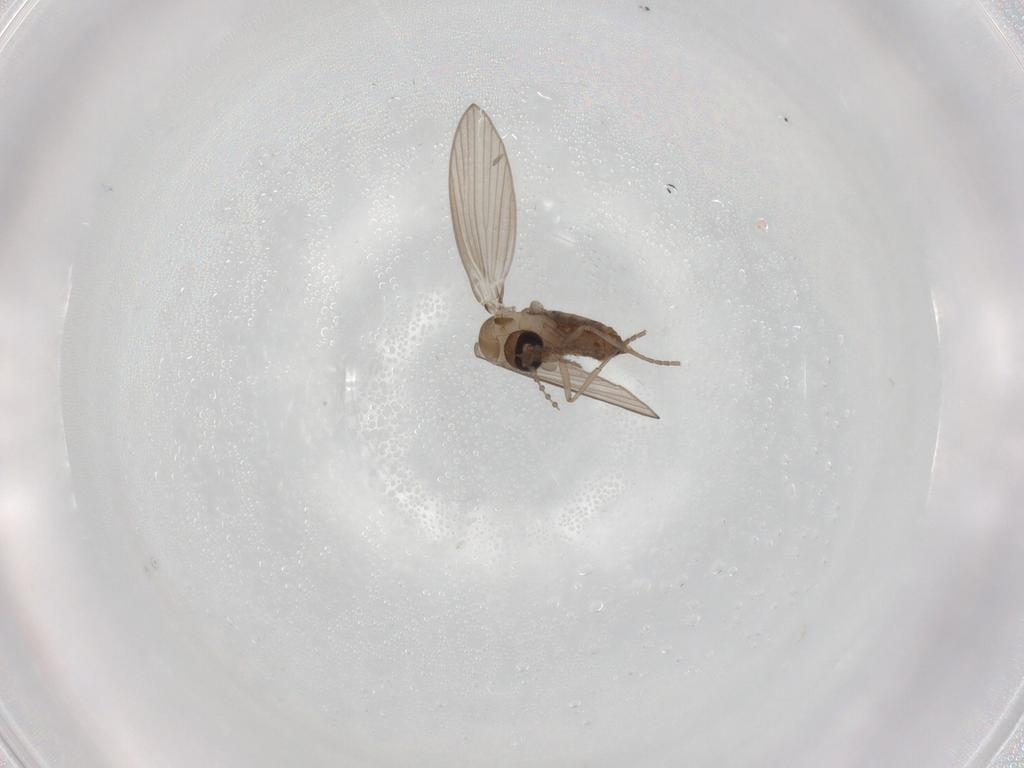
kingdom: Animalia
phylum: Arthropoda
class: Insecta
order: Diptera
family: Psychodidae
